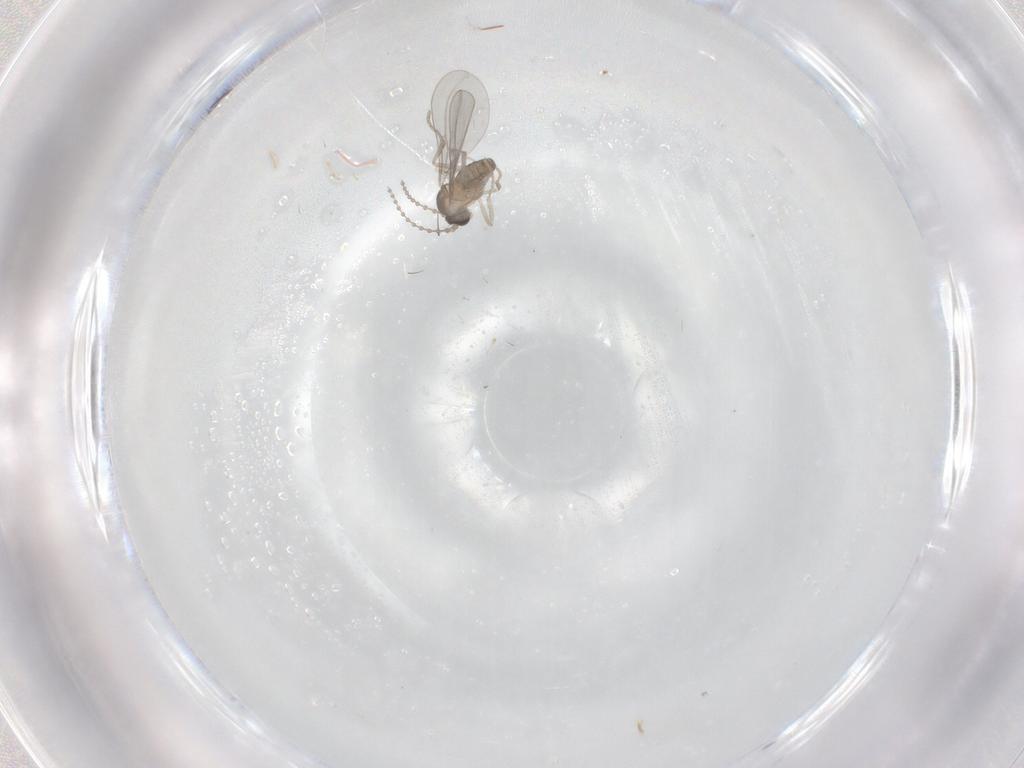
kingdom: Animalia
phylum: Arthropoda
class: Insecta
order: Diptera
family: Cecidomyiidae
